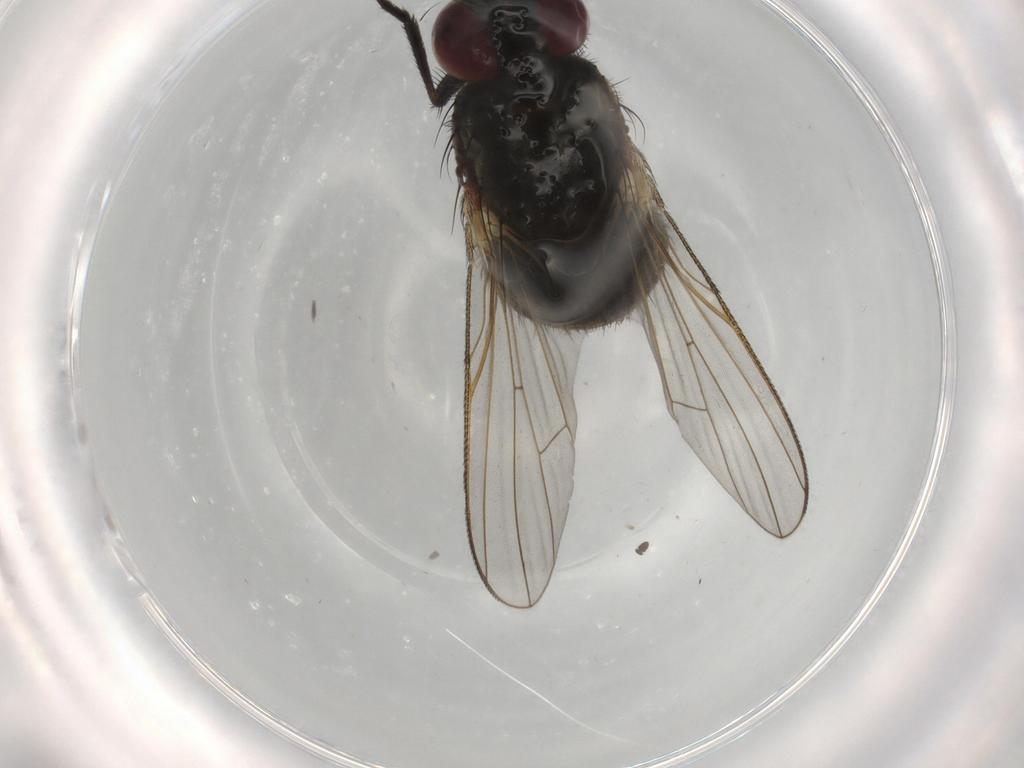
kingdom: Animalia
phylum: Arthropoda
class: Insecta
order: Diptera
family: Muscidae
